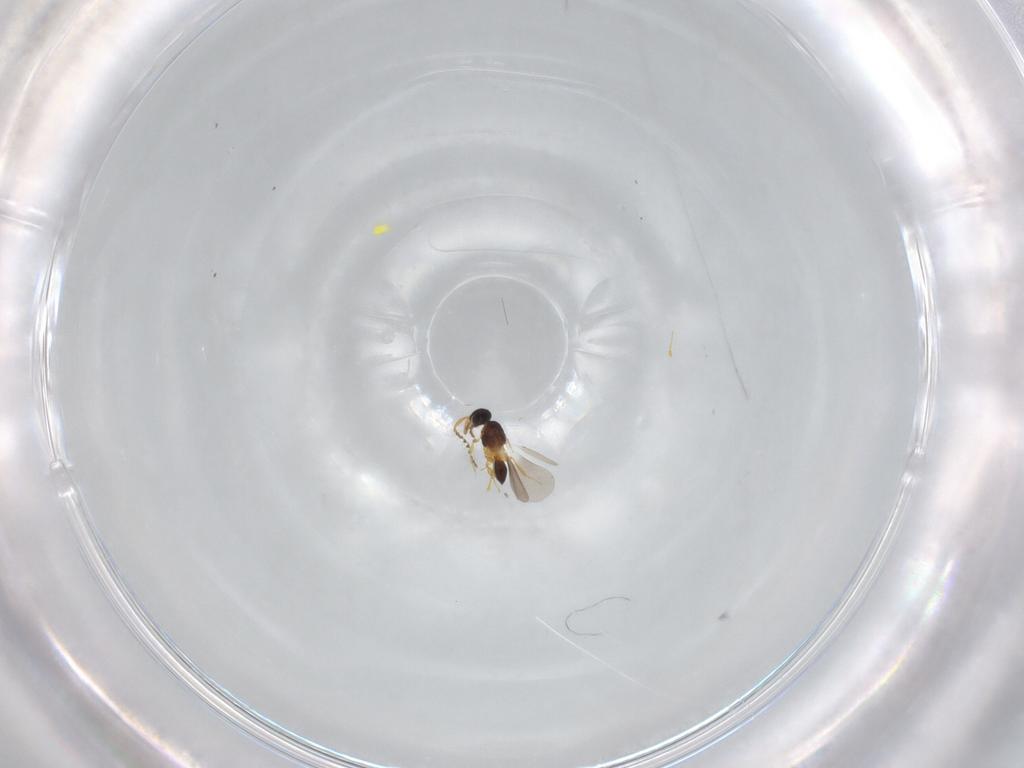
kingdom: Animalia
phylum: Arthropoda
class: Insecta
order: Hymenoptera
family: Platygastridae
